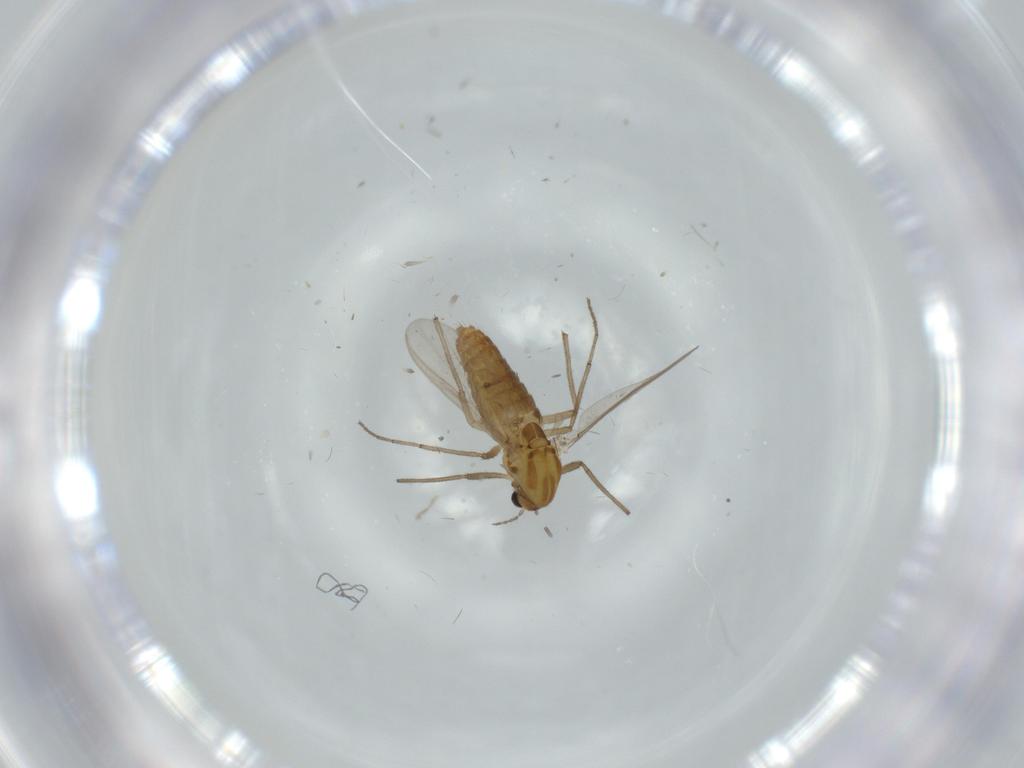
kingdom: Animalia
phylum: Arthropoda
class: Insecta
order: Diptera
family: Chironomidae
